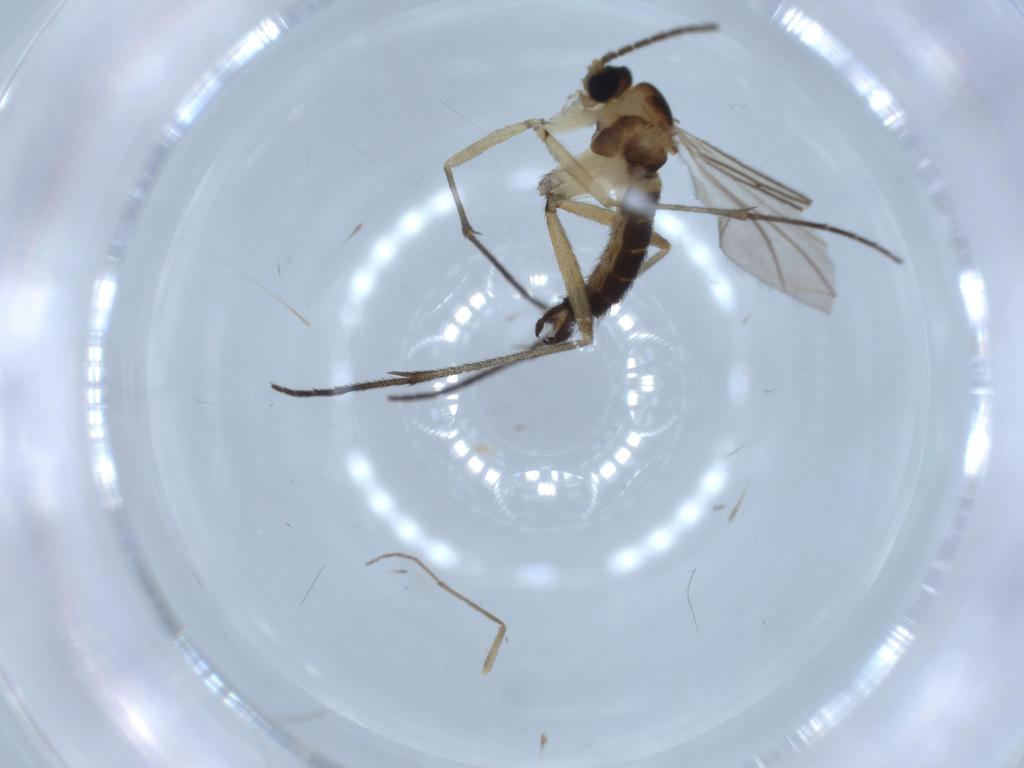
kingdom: Animalia
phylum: Arthropoda
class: Insecta
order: Diptera
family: Sciaridae
